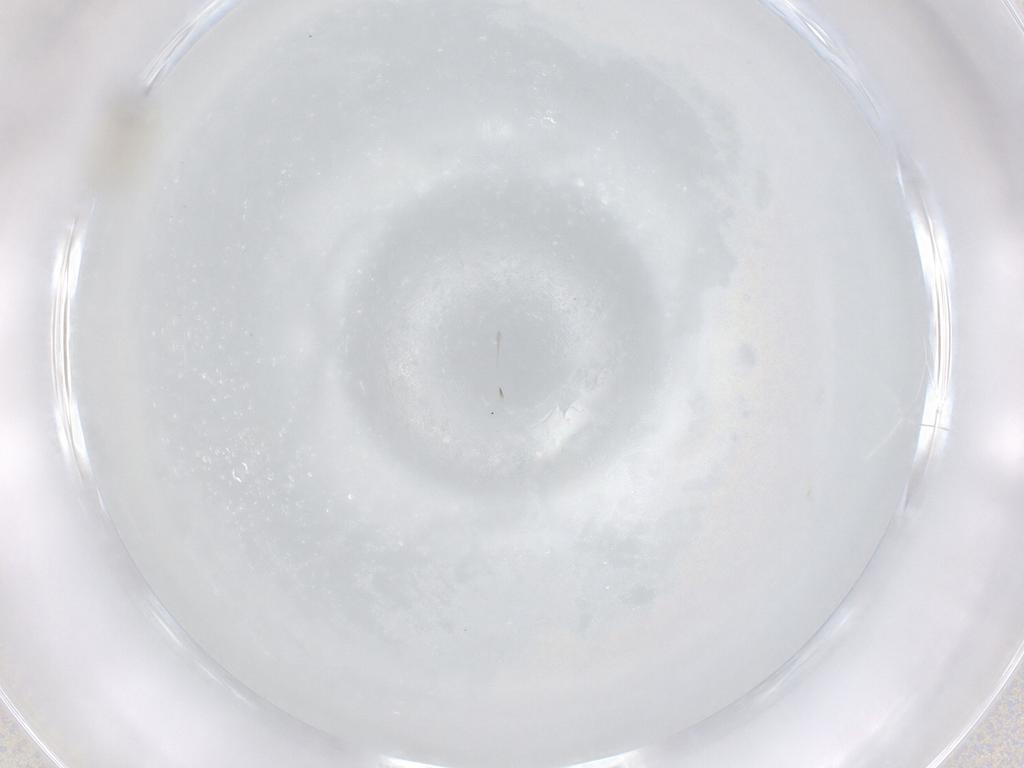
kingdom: Animalia
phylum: Arthropoda
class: Insecta
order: Diptera
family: Cecidomyiidae
